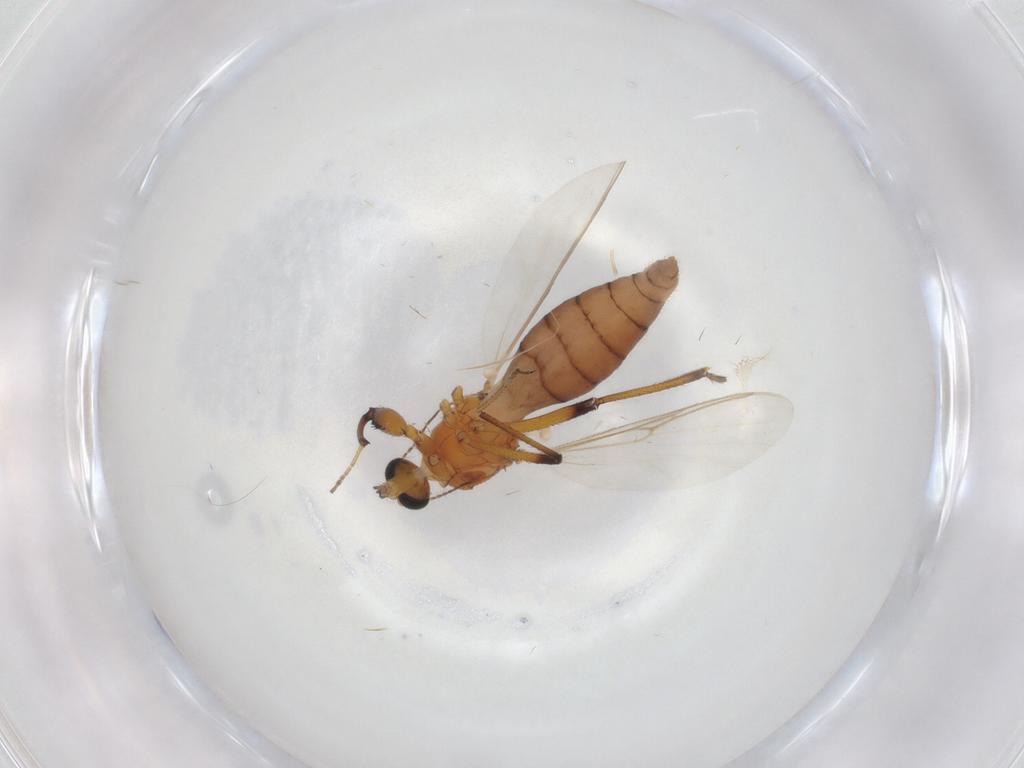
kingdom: Animalia
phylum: Arthropoda
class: Insecta
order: Diptera
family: Ceratopogonidae
